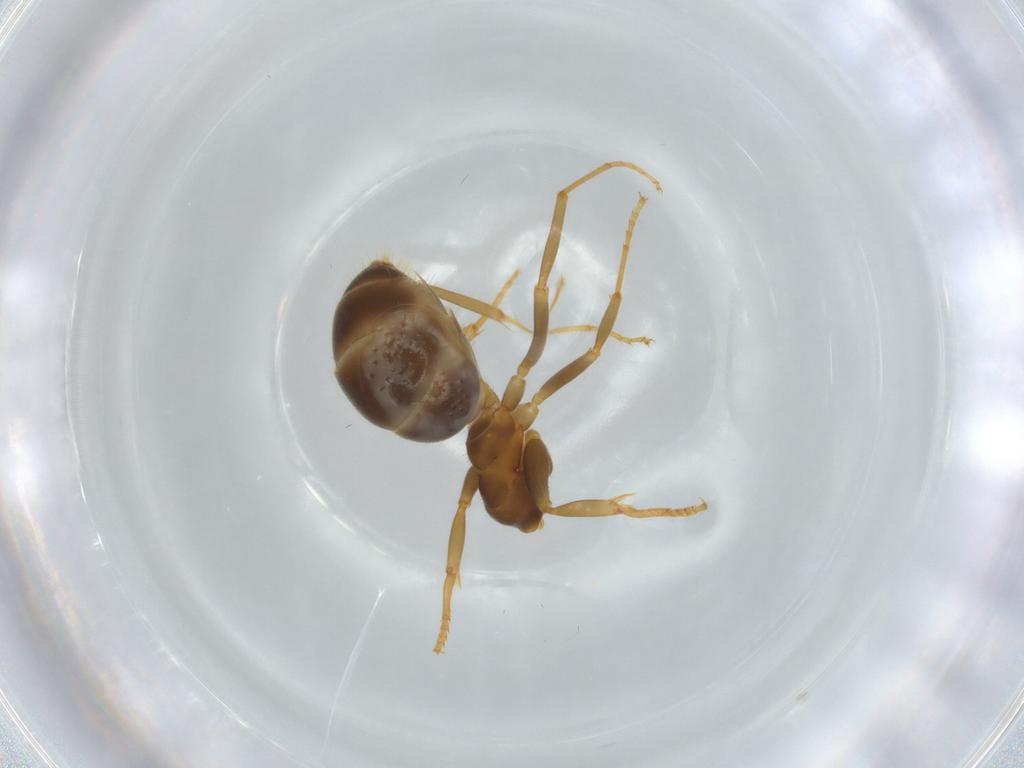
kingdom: Animalia
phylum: Arthropoda
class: Insecta
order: Hymenoptera
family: Formicidae
